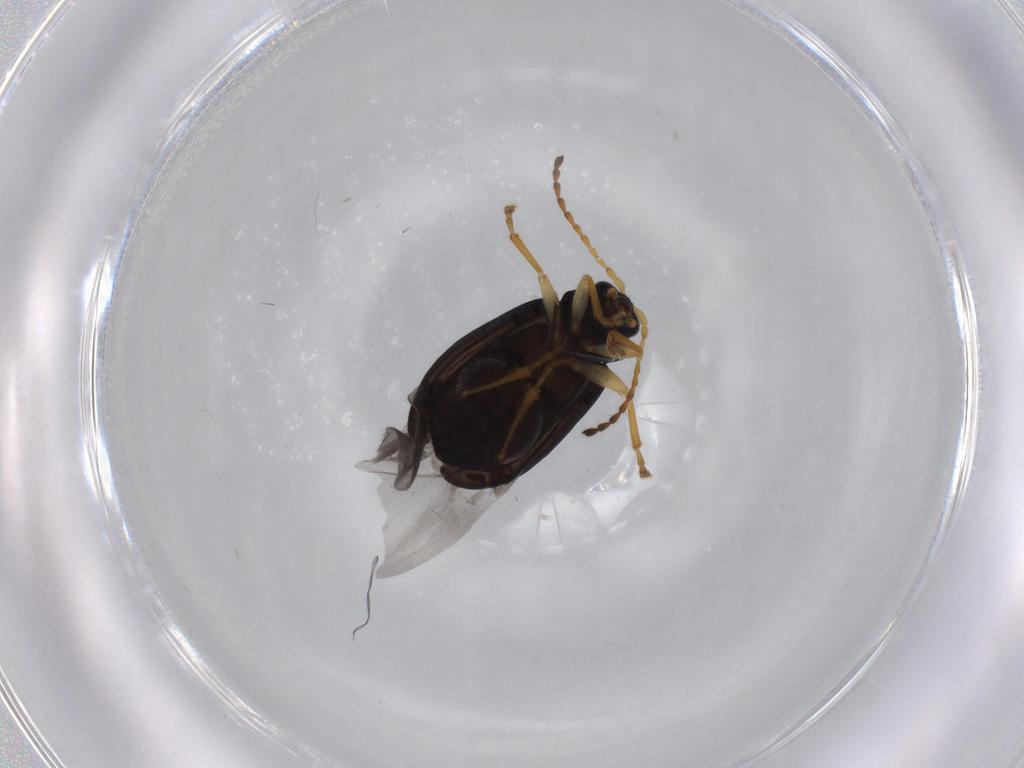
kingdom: Animalia
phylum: Arthropoda
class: Insecta
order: Coleoptera
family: Chrysomelidae
